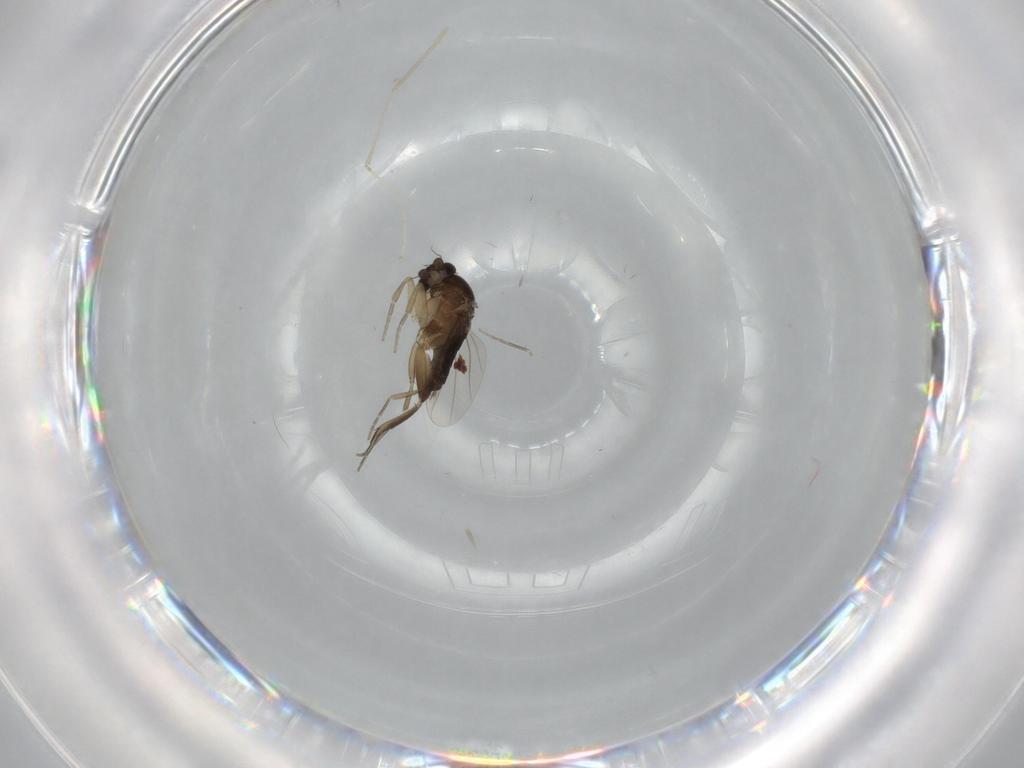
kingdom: Animalia
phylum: Arthropoda
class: Insecta
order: Diptera
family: Phoridae
